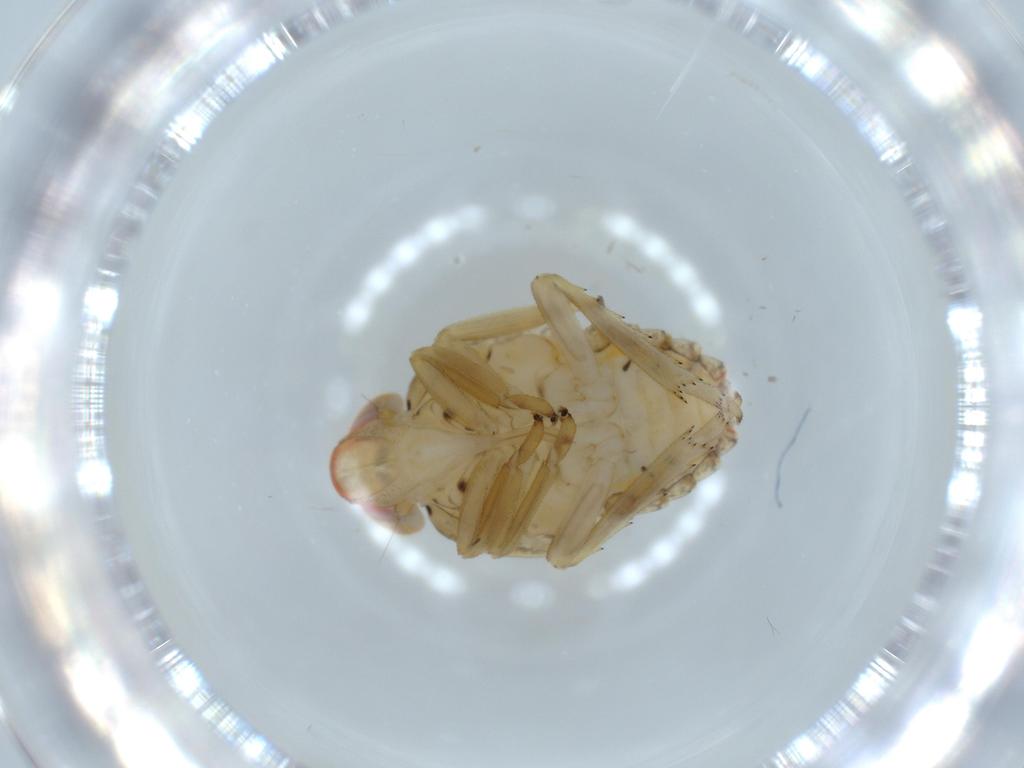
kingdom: Animalia
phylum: Arthropoda
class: Insecta
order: Hemiptera
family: Fulgoroidea_incertae_sedis
